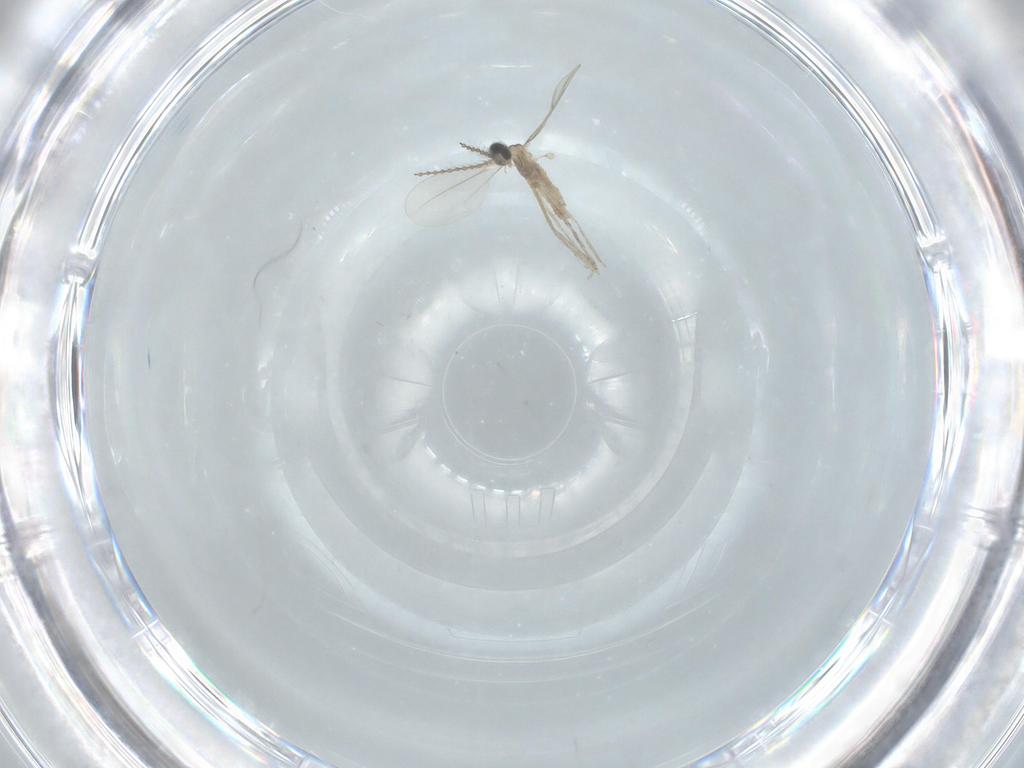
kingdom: Animalia
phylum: Arthropoda
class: Insecta
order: Diptera
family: Cecidomyiidae
